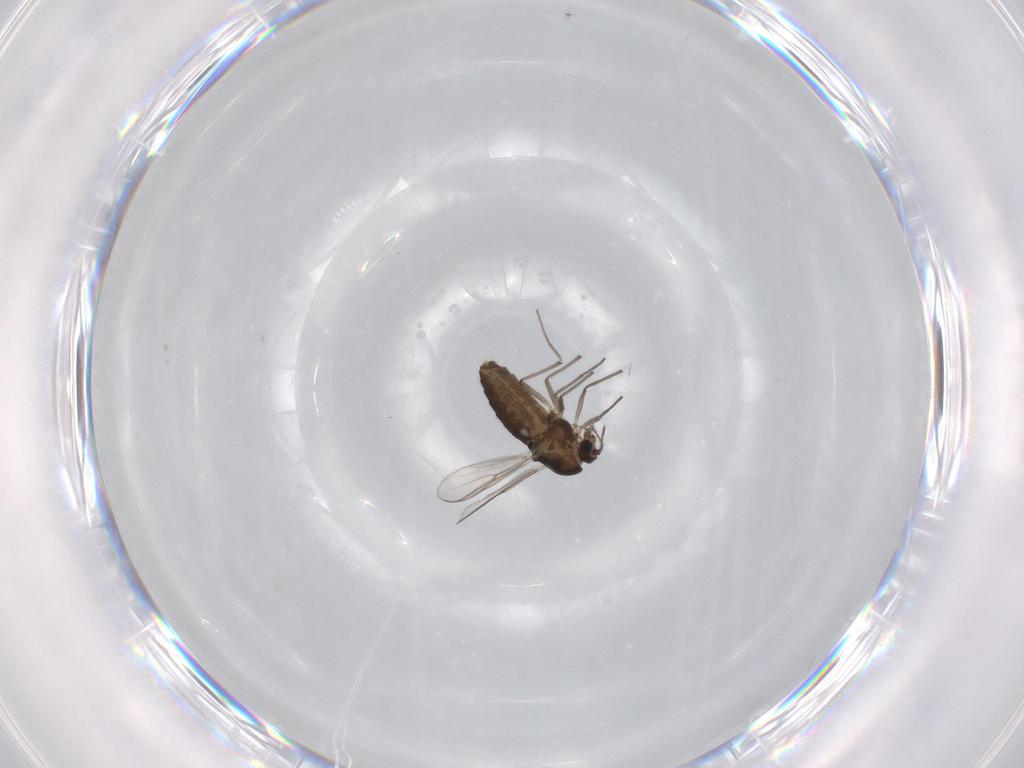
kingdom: Animalia
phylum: Arthropoda
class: Insecta
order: Diptera
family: Chironomidae
